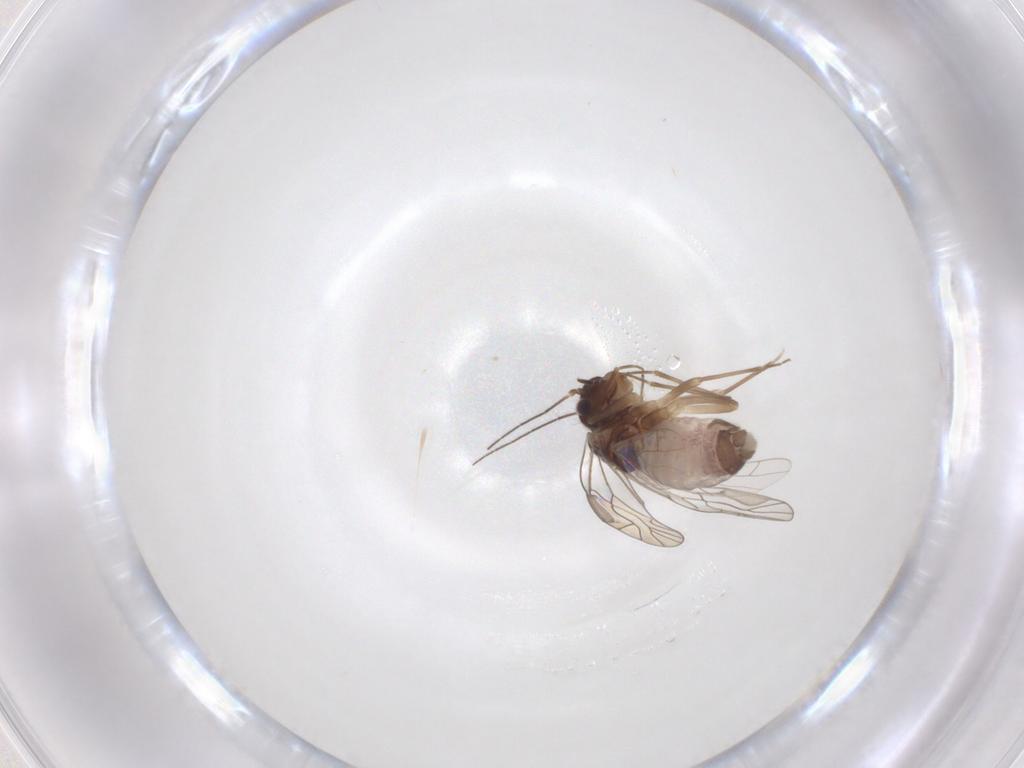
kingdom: Animalia
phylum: Arthropoda
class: Insecta
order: Psocodea
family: Lachesillidae
